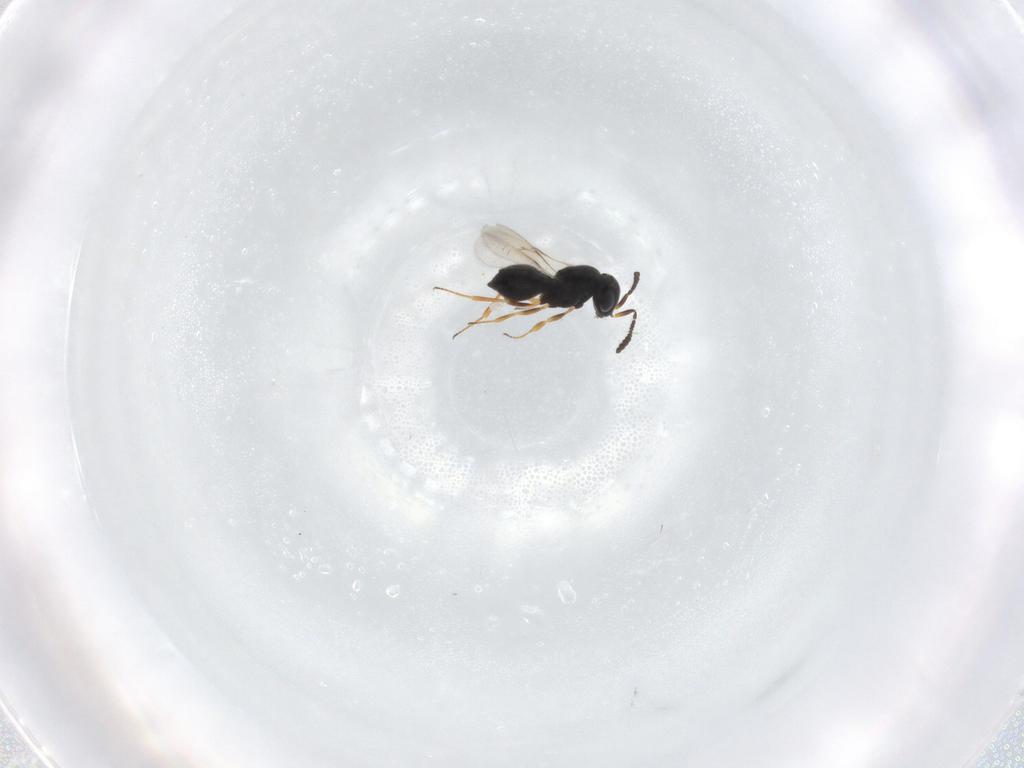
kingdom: Animalia
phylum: Arthropoda
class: Insecta
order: Hymenoptera
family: Scelionidae
